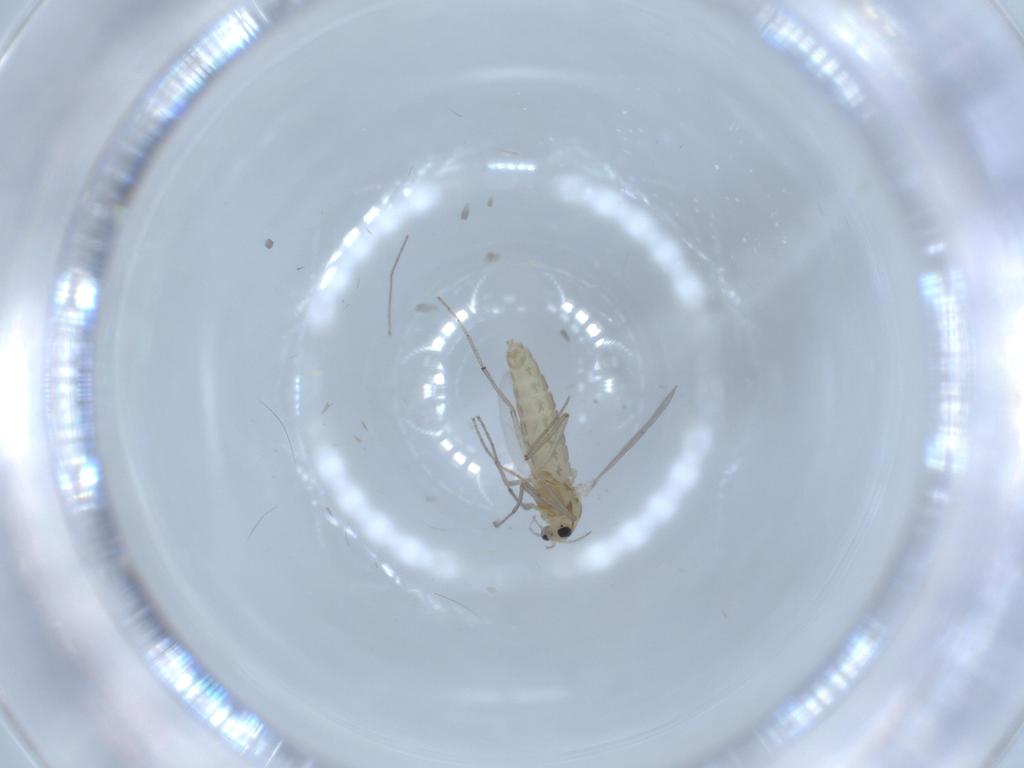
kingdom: Animalia
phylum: Arthropoda
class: Insecta
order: Diptera
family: Chironomidae
